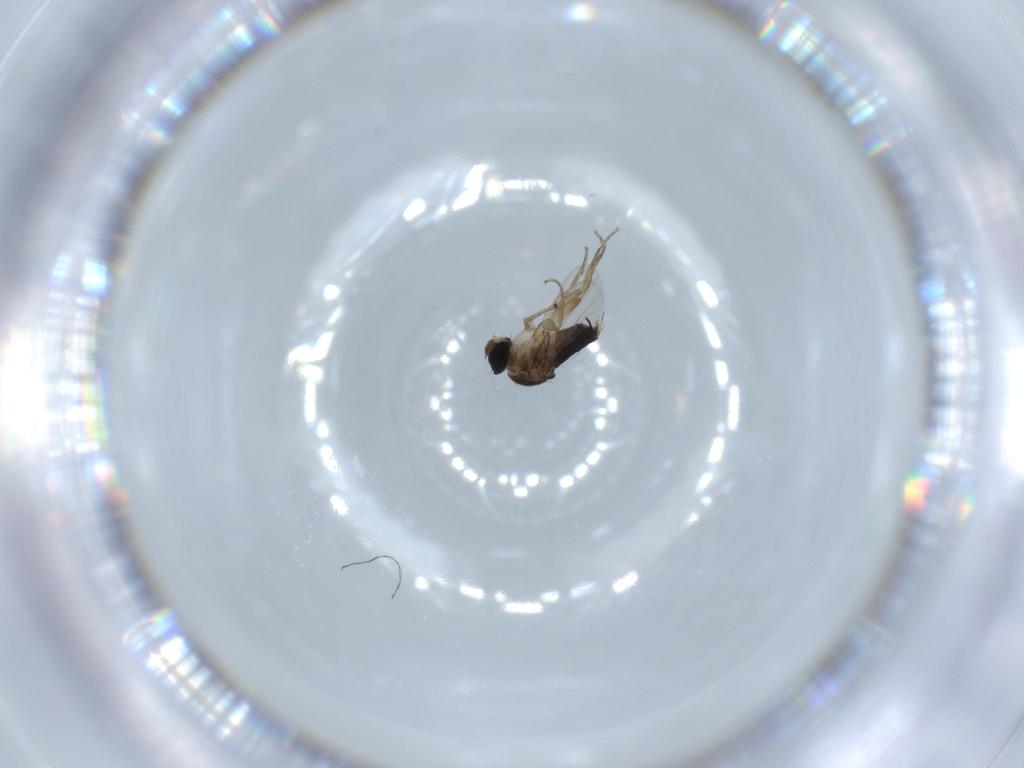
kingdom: Animalia
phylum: Arthropoda
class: Insecta
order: Diptera
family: Phoridae
